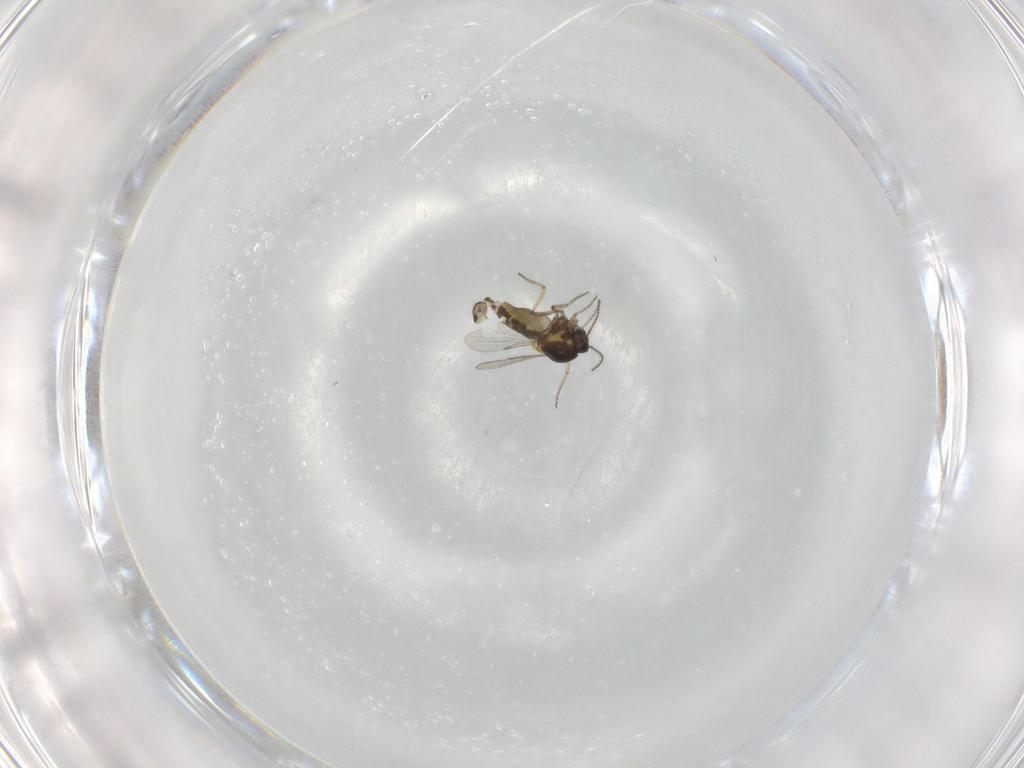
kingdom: Animalia
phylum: Arthropoda
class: Insecta
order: Diptera
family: Ceratopogonidae
